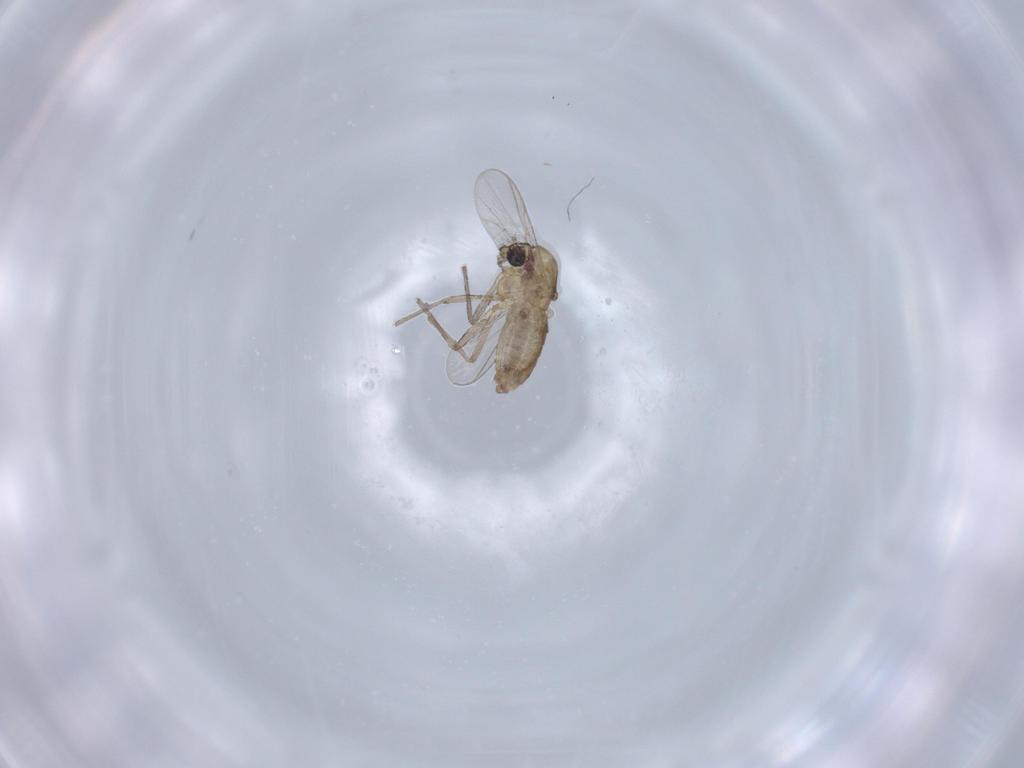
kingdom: Animalia
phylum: Arthropoda
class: Insecta
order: Diptera
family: Chironomidae
